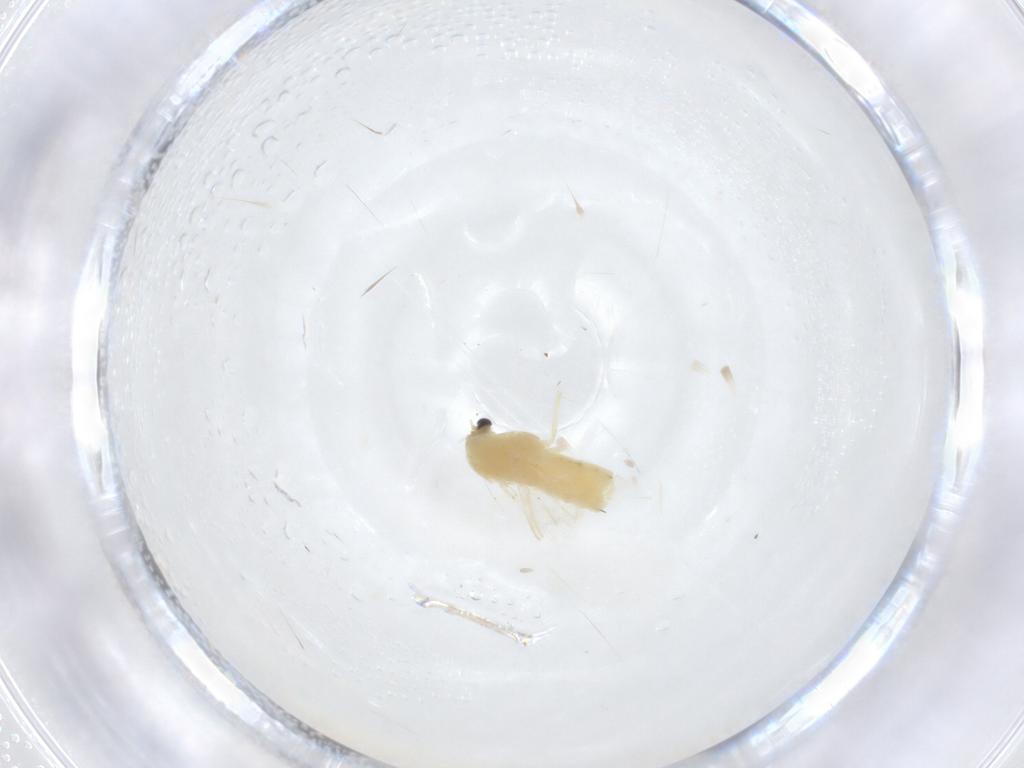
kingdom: Animalia
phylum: Arthropoda
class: Insecta
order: Diptera
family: Chironomidae
